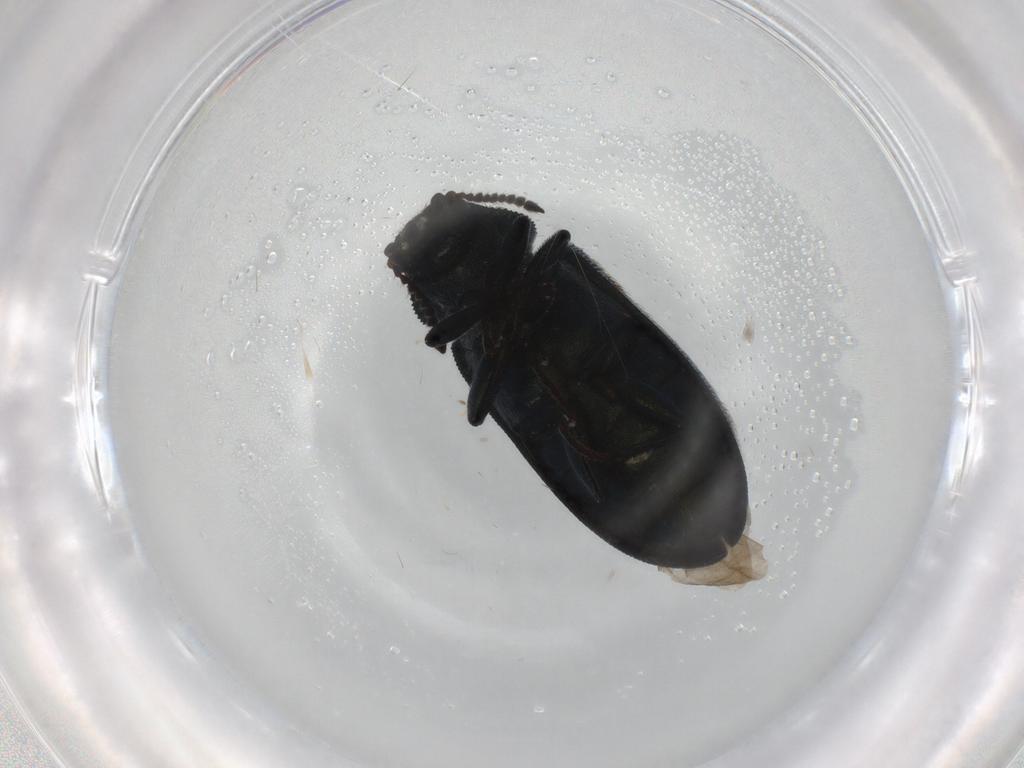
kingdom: Animalia
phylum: Arthropoda
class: Insecta
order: Coleoptera
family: Melyridae
